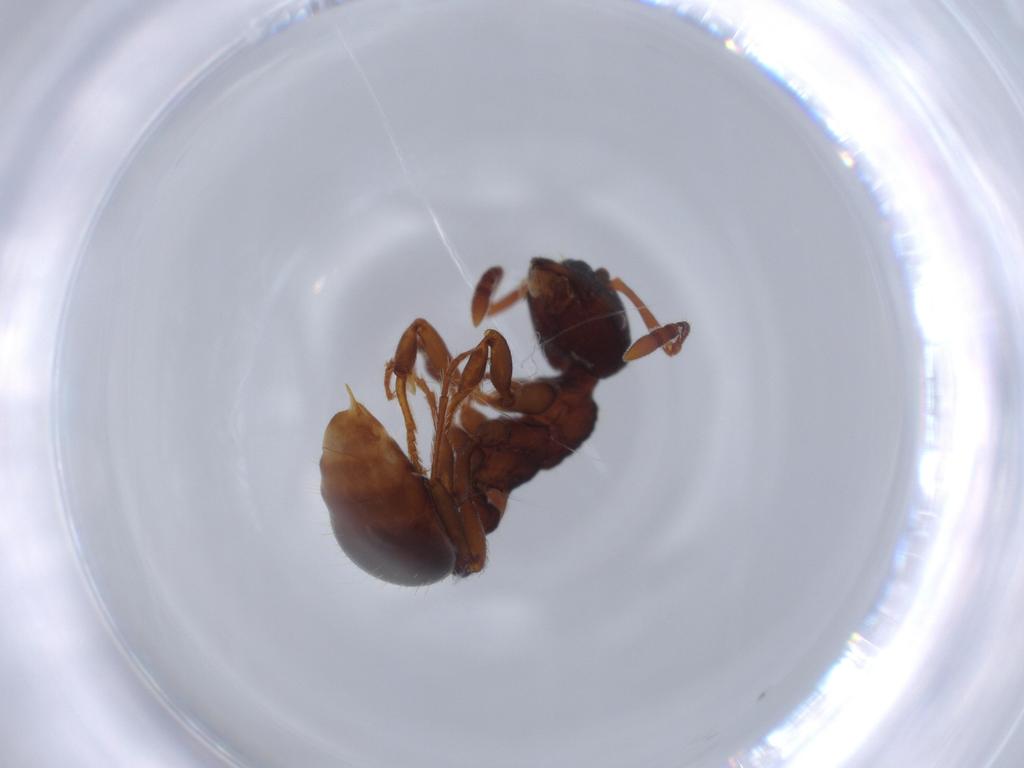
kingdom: Animalia
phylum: Arthropoda
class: Insecta
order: Hymenoptera
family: Formicidae
